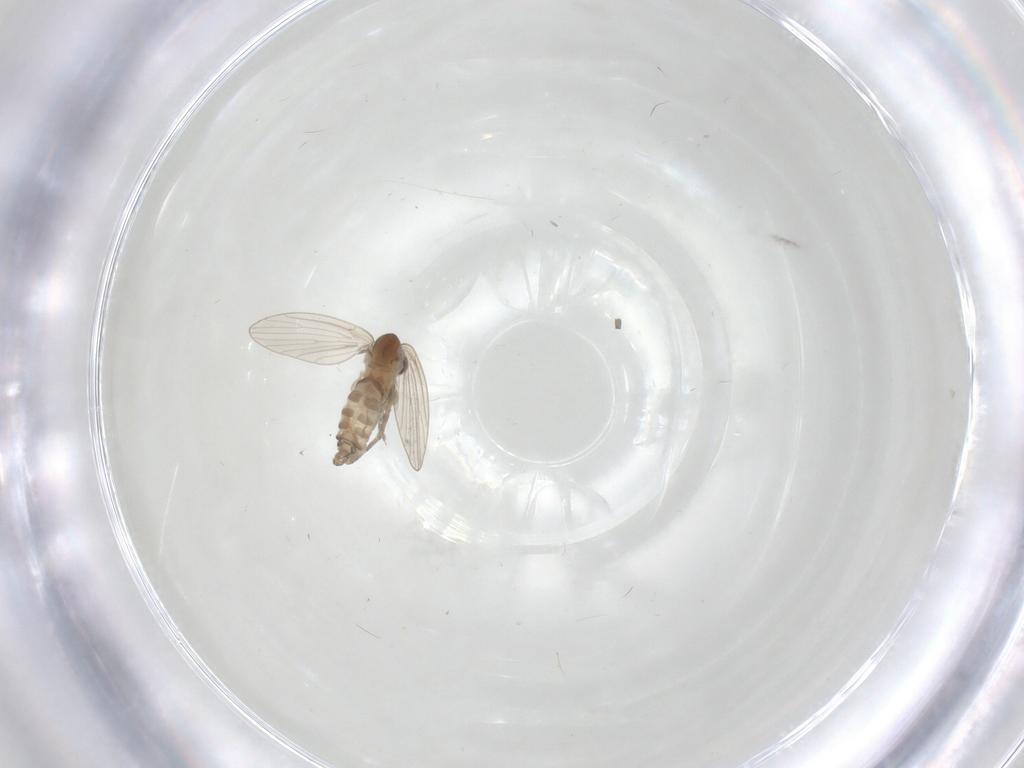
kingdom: Animalia
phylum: Arthropoda
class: Insecta
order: Diptera
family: Psychodidae
